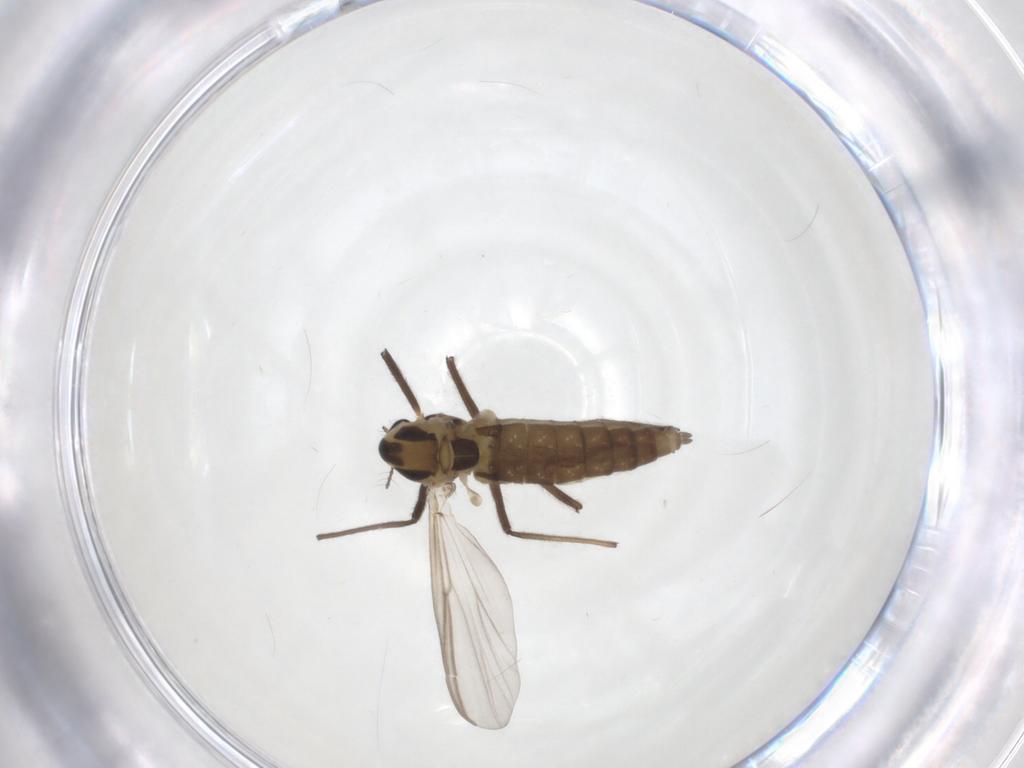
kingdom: Animalia
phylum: Arthropoda
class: Insecta
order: Diptera
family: Chironomidae
